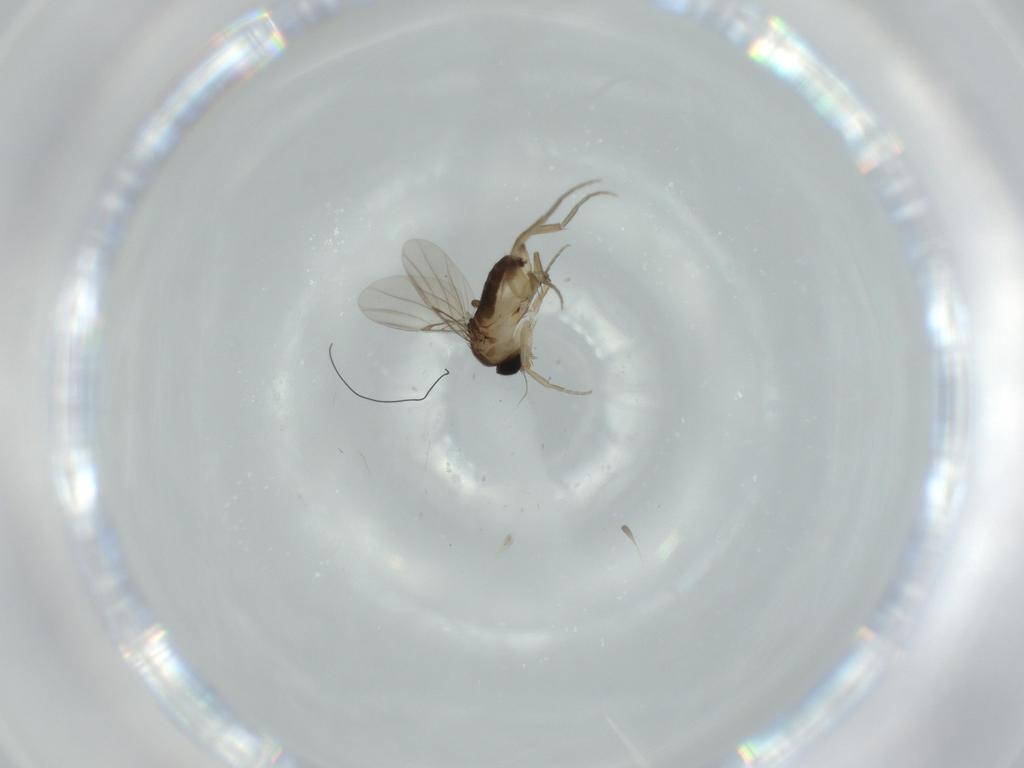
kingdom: Animalia
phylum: Arthropoda
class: Insecta
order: Diptera
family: Phoridae
